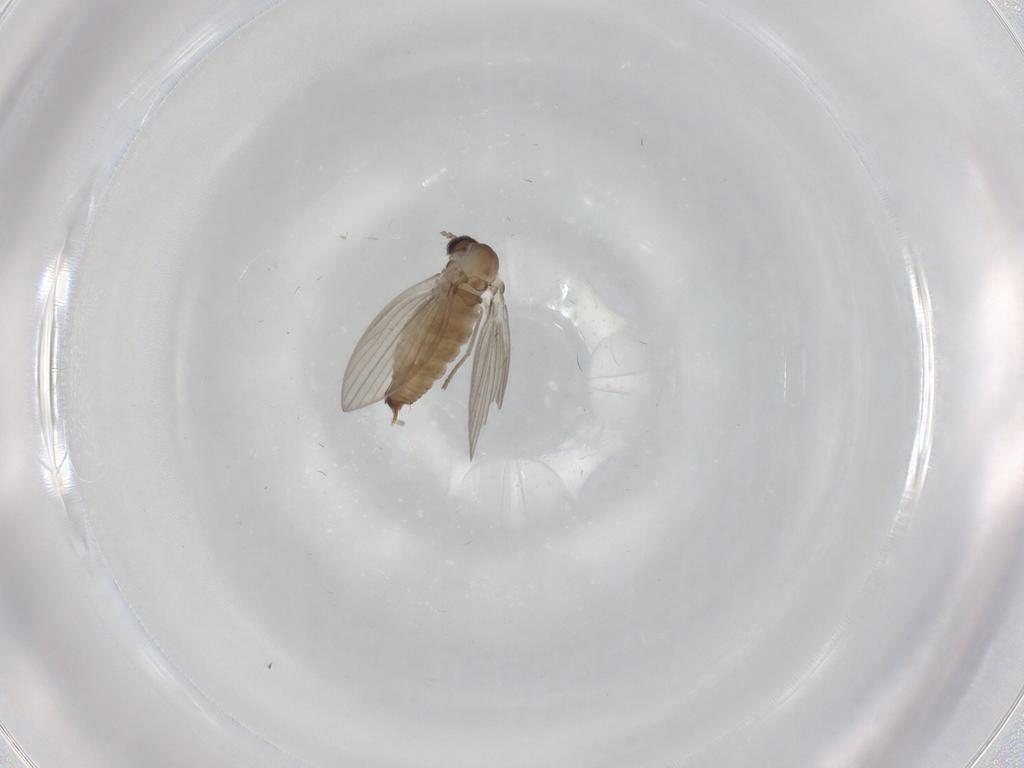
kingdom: Animalia
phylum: Arthropoda
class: Insecta
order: Diptera
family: Psychodidae
